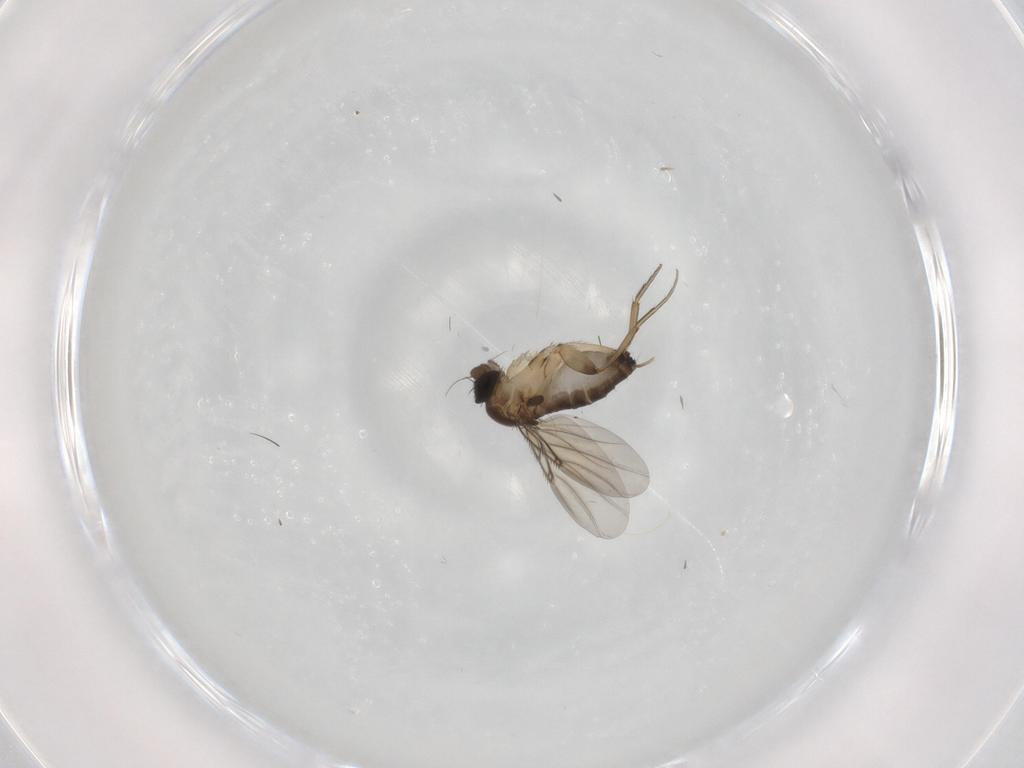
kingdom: Animalia
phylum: Arthropoda
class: Insecta
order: Diptera
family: Phoridae
